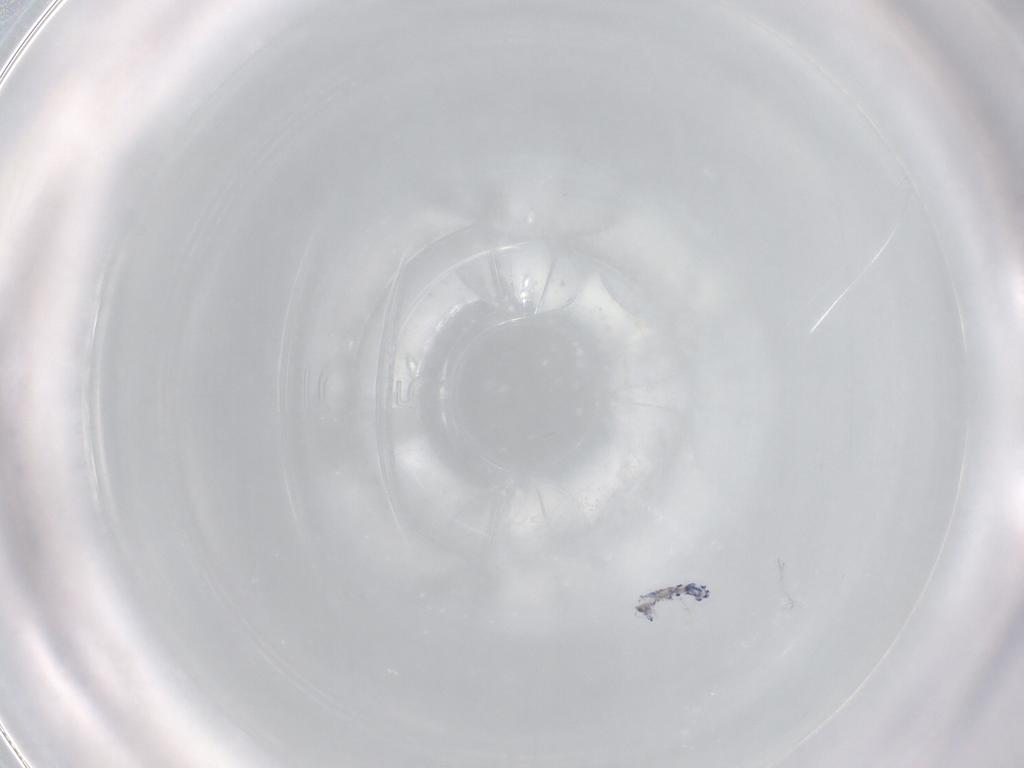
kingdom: Animalia
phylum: Arthropoda
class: Collembola
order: Entomobryomorpha
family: Entomobryidae
